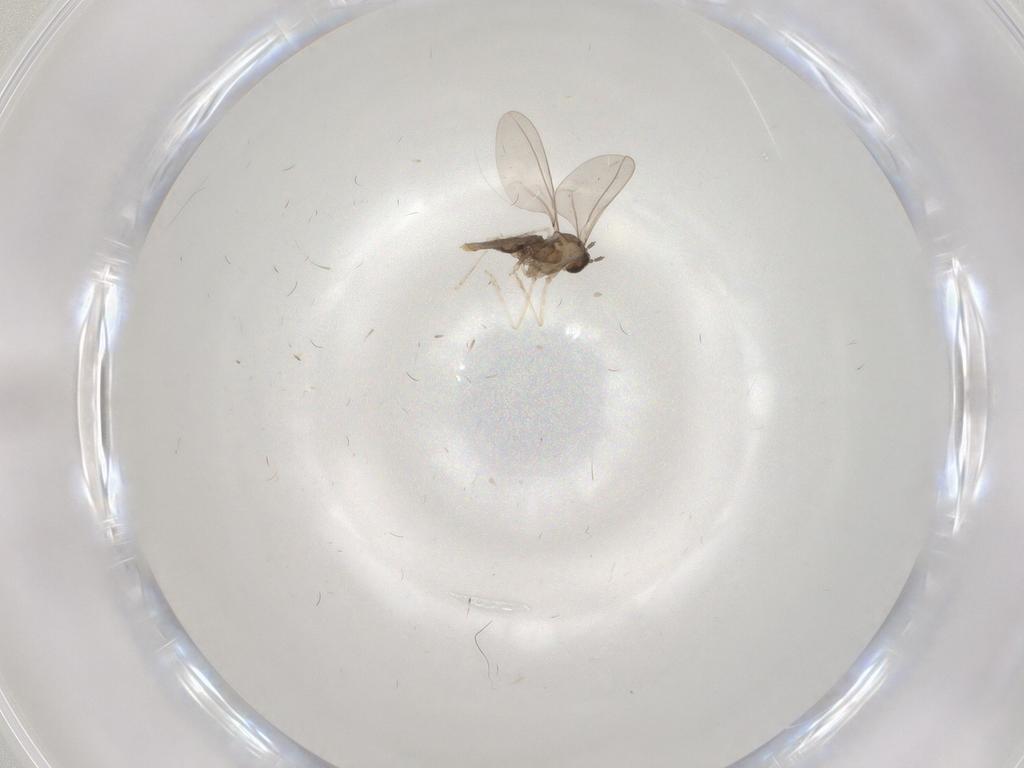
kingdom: Animalia
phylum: Arthropoda
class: Insecta
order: Diptera
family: Cecidomyiidae
